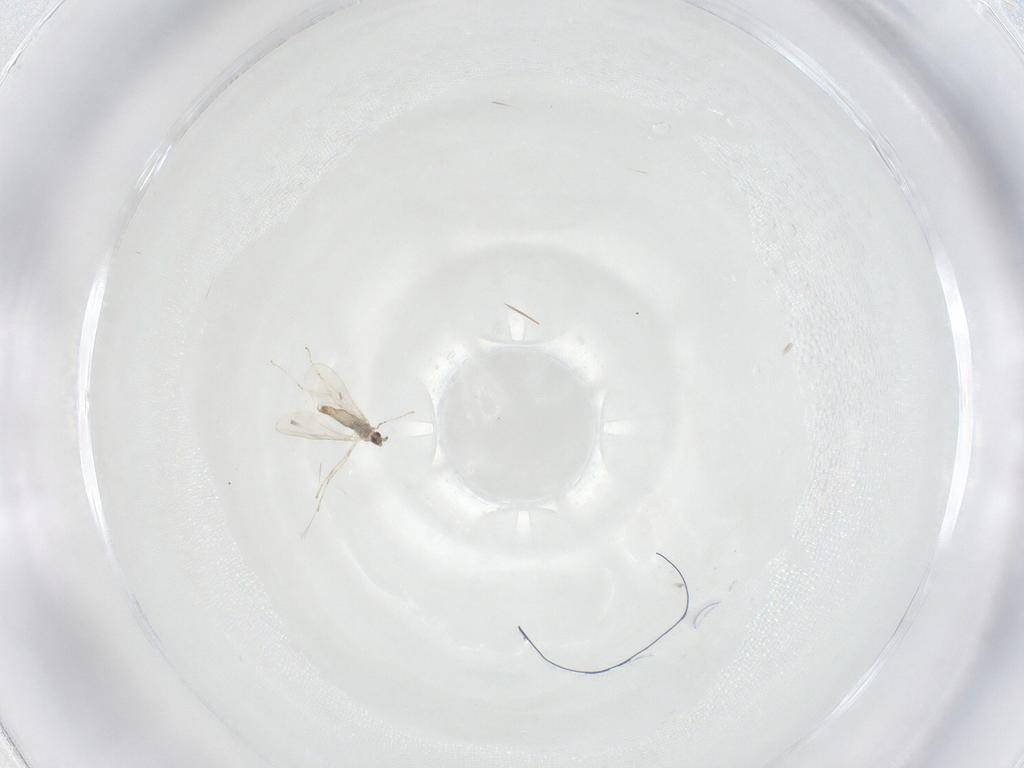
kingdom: Animalia
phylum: Arthropoda
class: Insecta
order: Diptera
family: Cecidomyiidae
